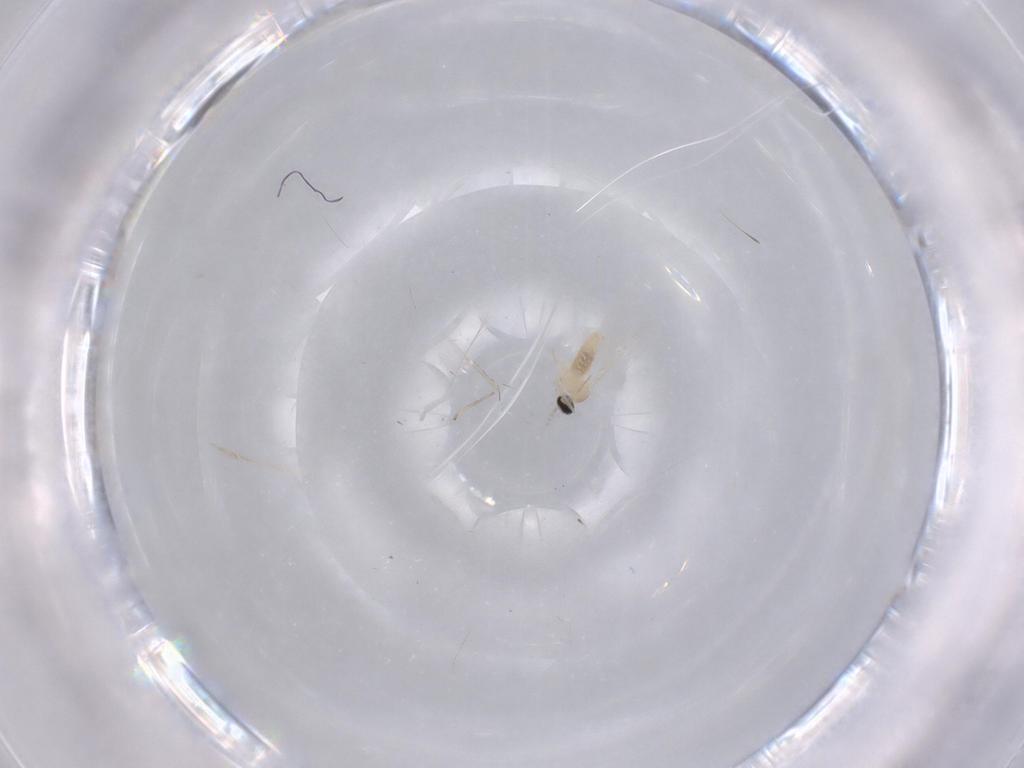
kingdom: Animalia
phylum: Arthropoda
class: Insecta
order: Diptera
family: Cecidomyiidae
